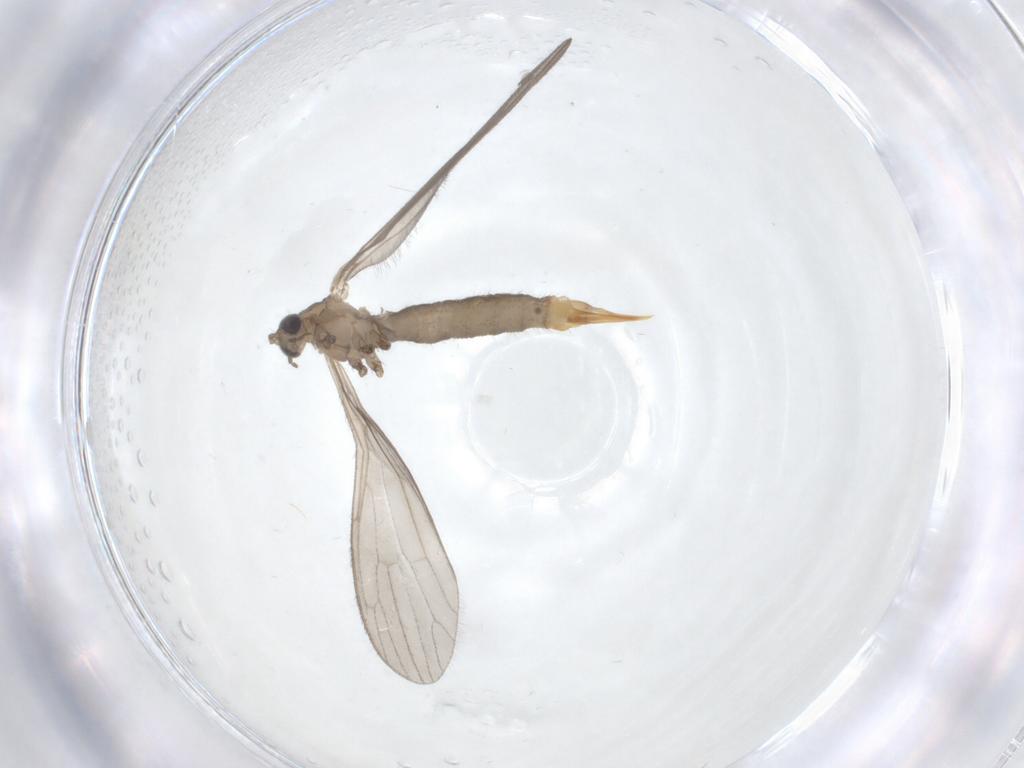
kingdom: Animalia
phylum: Arthropoda
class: Insecta
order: Diptera
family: Limoniidae
